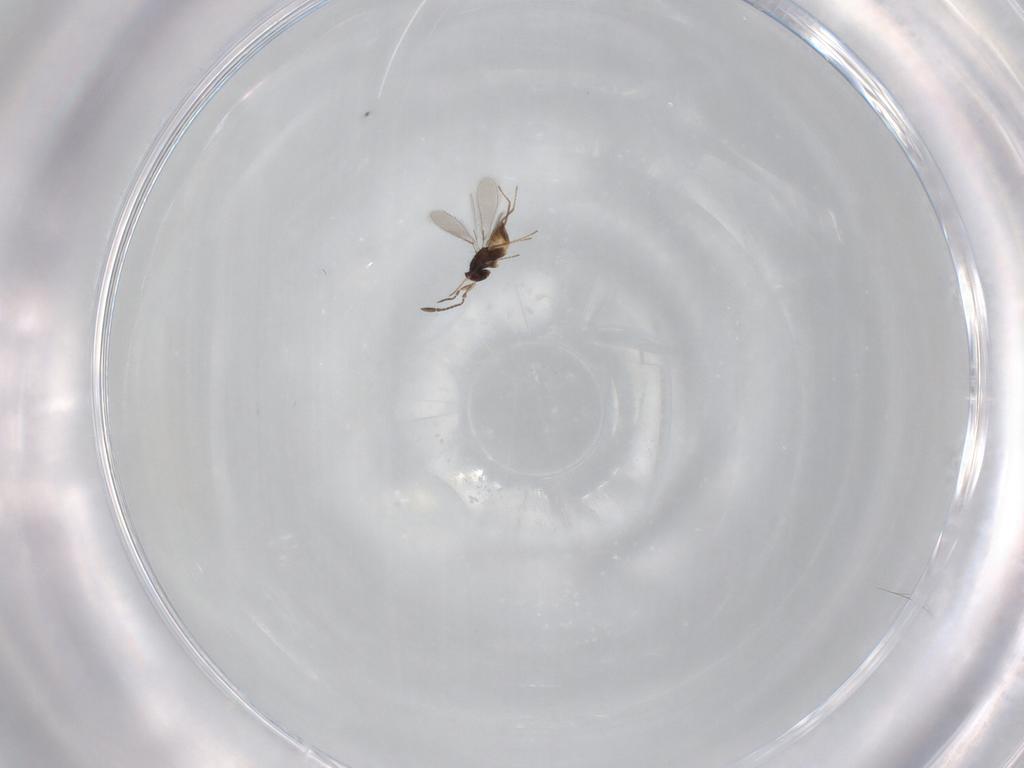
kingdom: Animalia
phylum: Arthropoda
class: Insecta
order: Hymenoptera
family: Mymaridae
